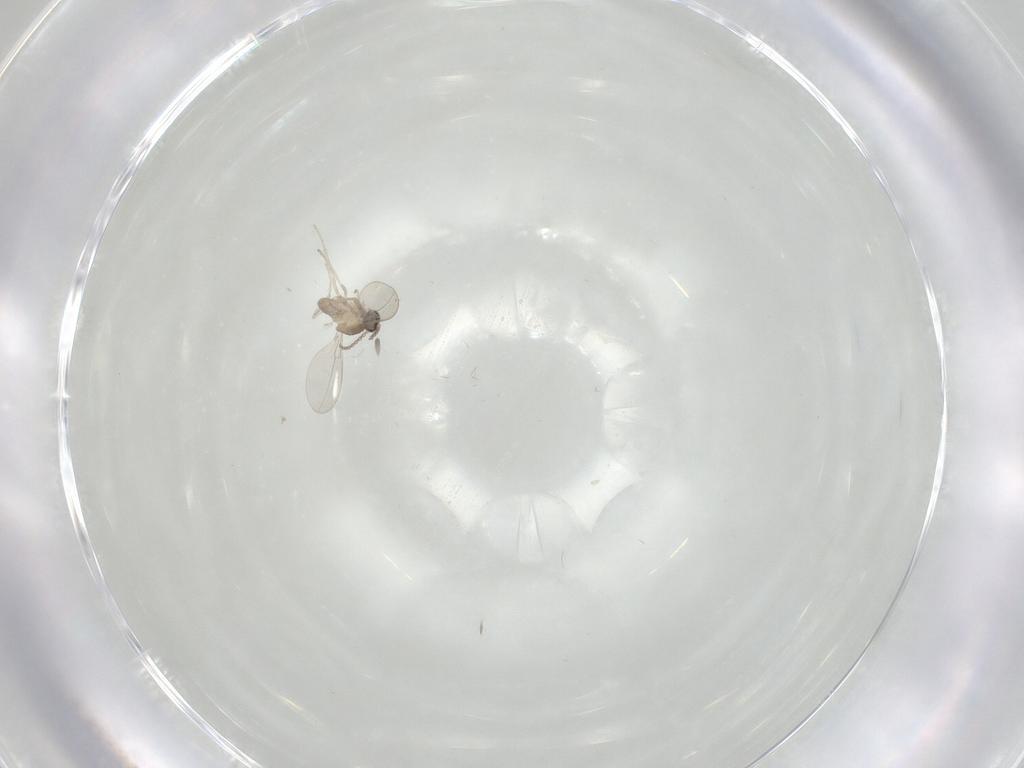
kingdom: Animalia
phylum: Arthropoda
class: Insecta
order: Diptera
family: Cecidomyiidae
